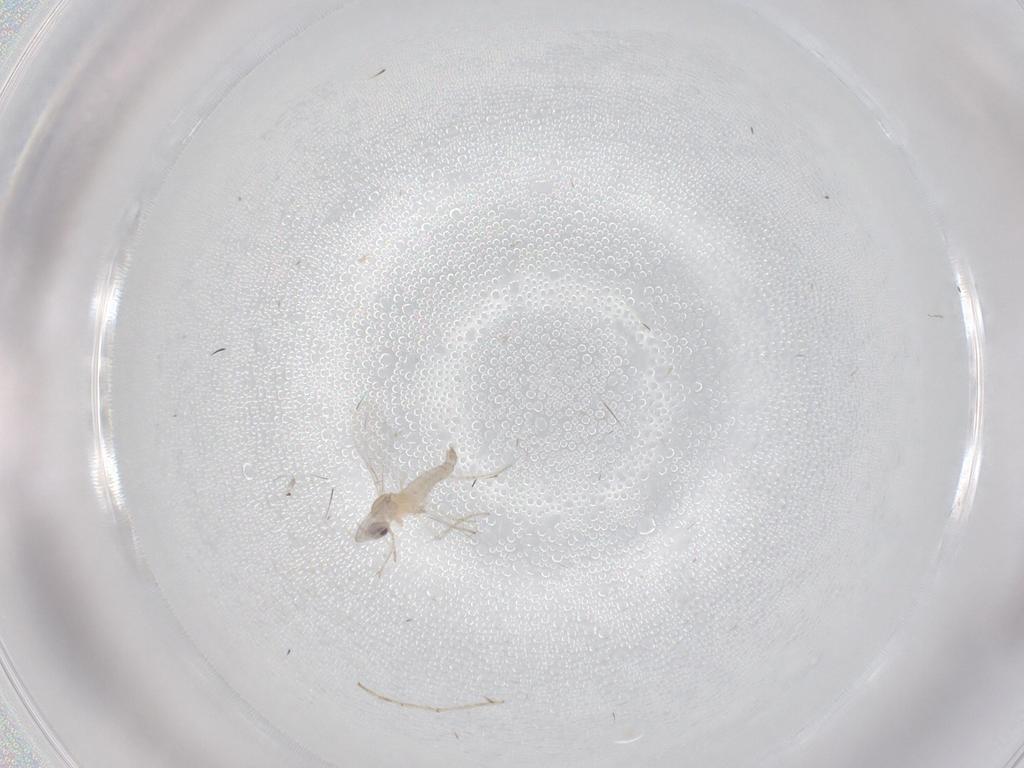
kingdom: Animalia
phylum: Arthropoda
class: Insecta
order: Diptera
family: Cecidomyiidae
